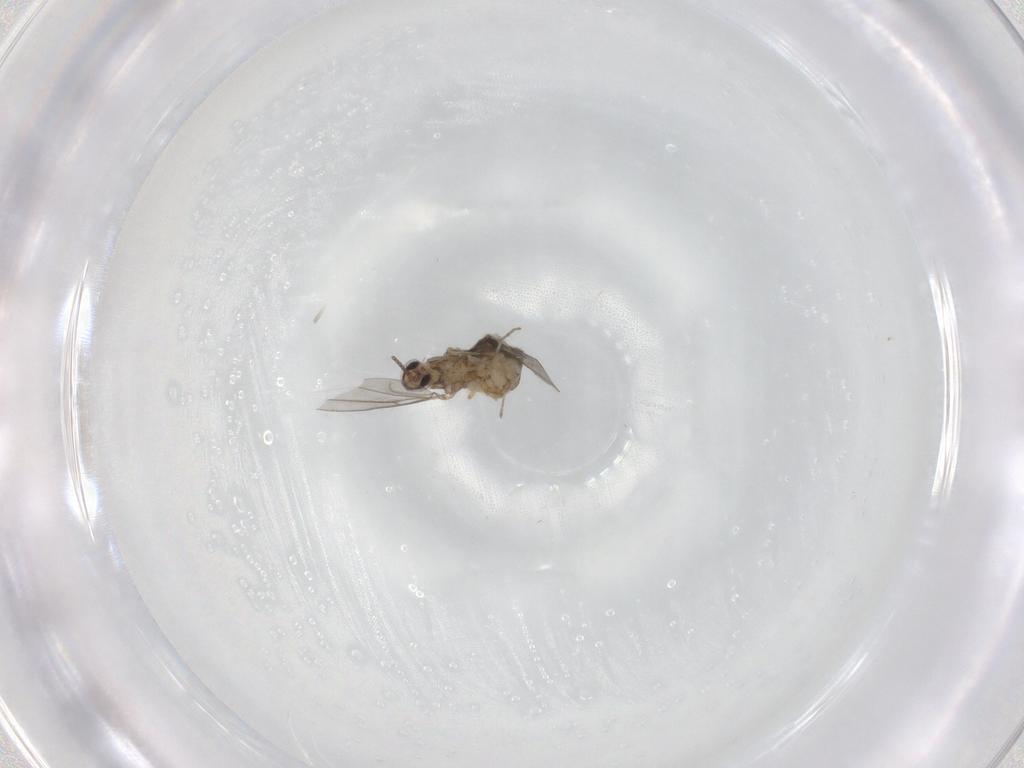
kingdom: Animalia
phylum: Arthropoda
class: Insecta
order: Diptera
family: Cecidomyiidae
